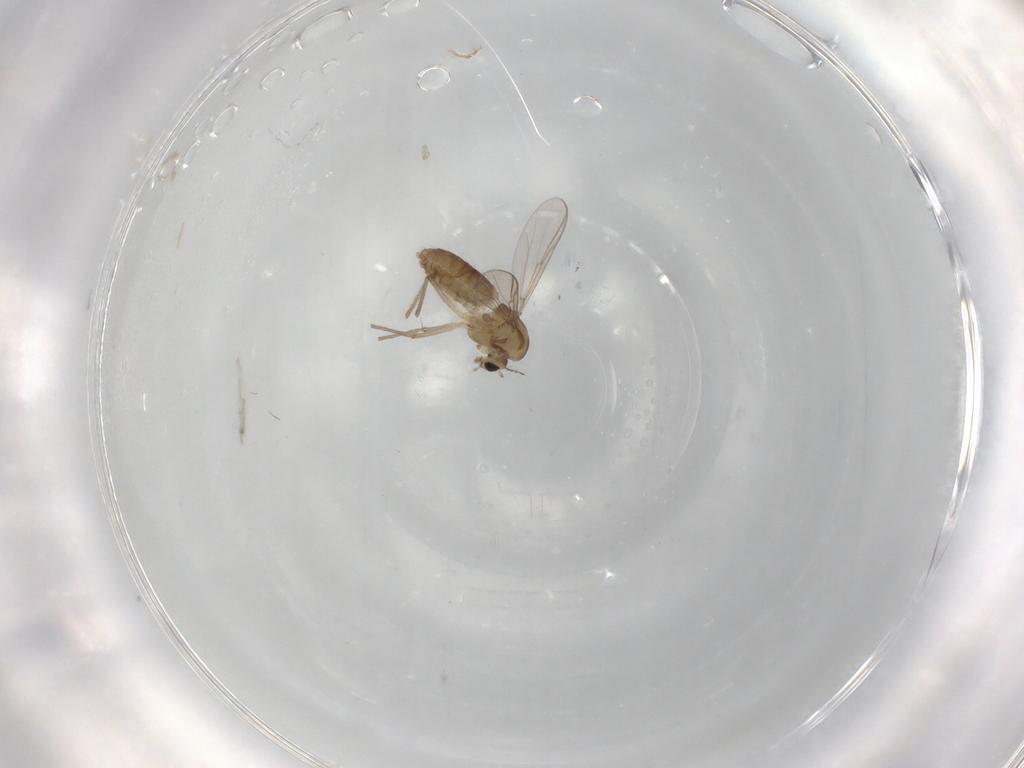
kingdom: Animalia
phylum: Arthropoda
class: Insecta
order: Diptera
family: Chironomidae
